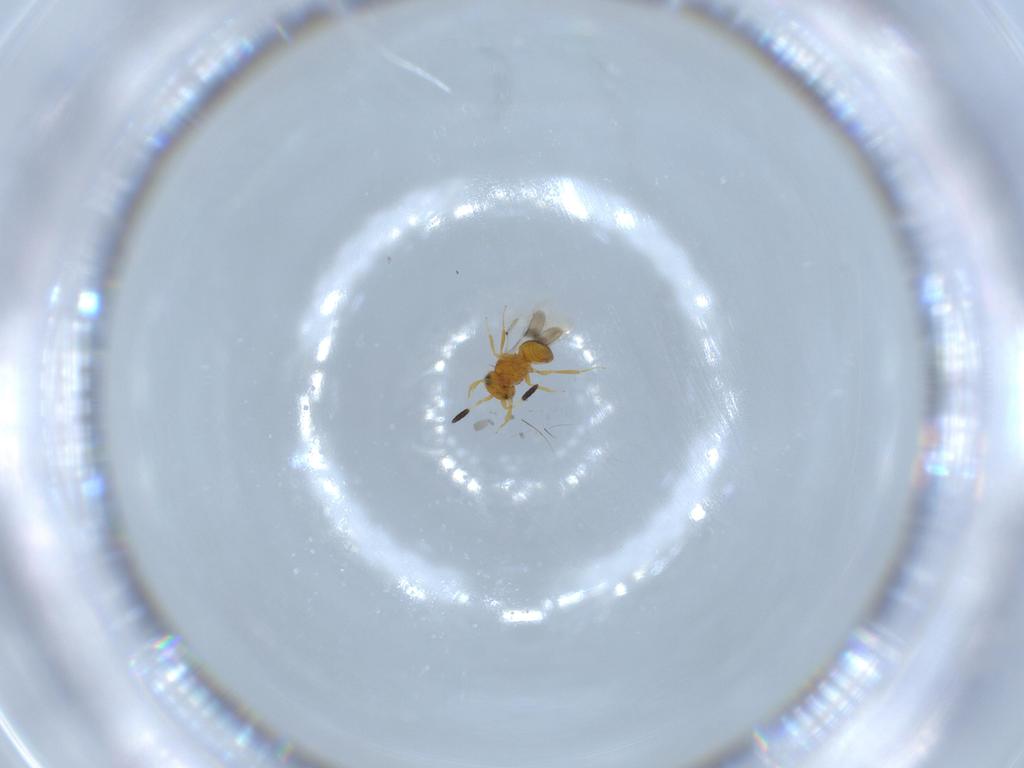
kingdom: Animalia
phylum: Arthropoda
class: Insecta
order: Hymenoptera
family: Scelionidae
